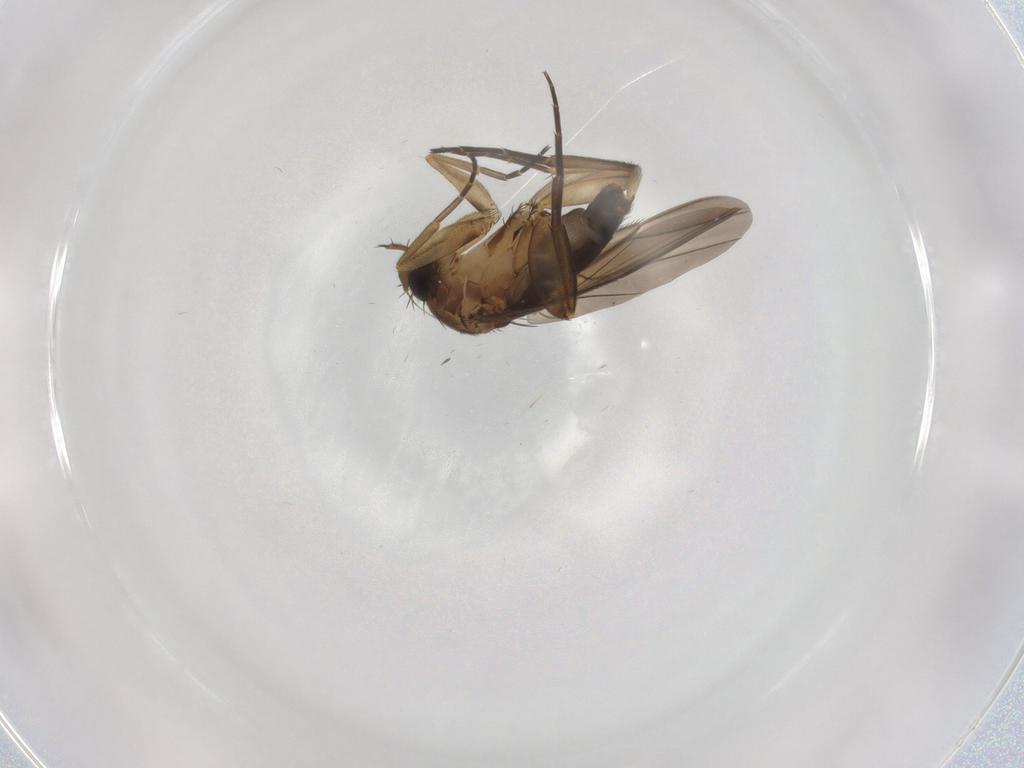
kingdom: Animalia
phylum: Arthropoda
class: Insecta
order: Diptera
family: Phoridae
